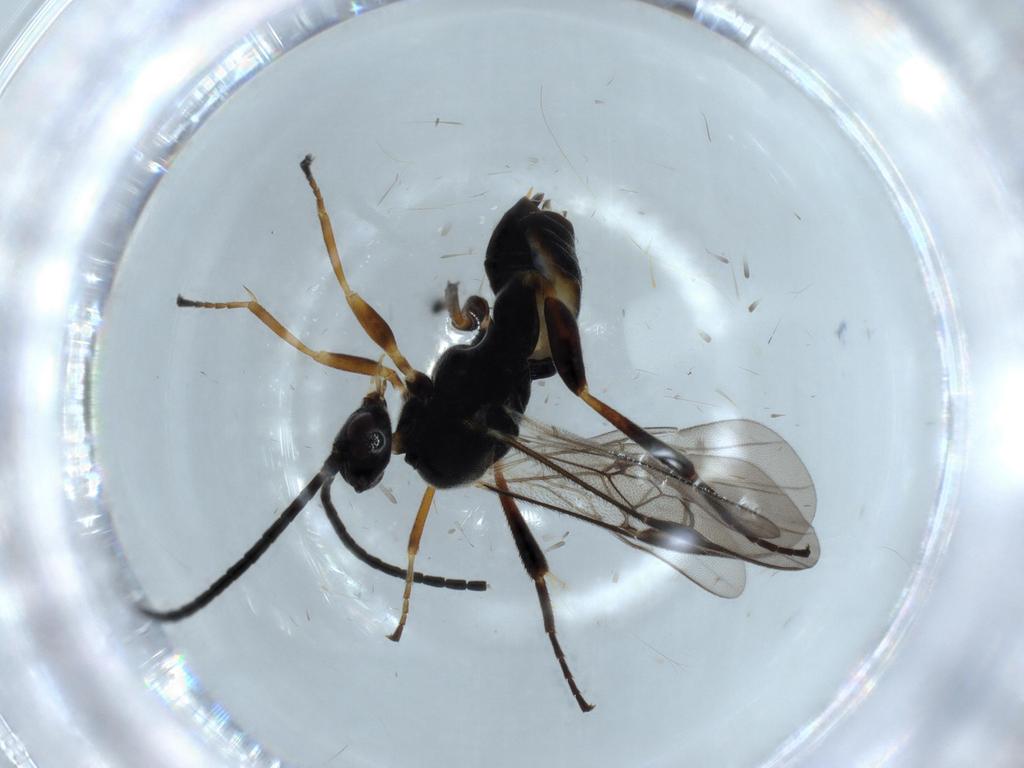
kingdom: Animalia
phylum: Arthropoda
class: Insecta
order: Hymenoptera
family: Braconidae
